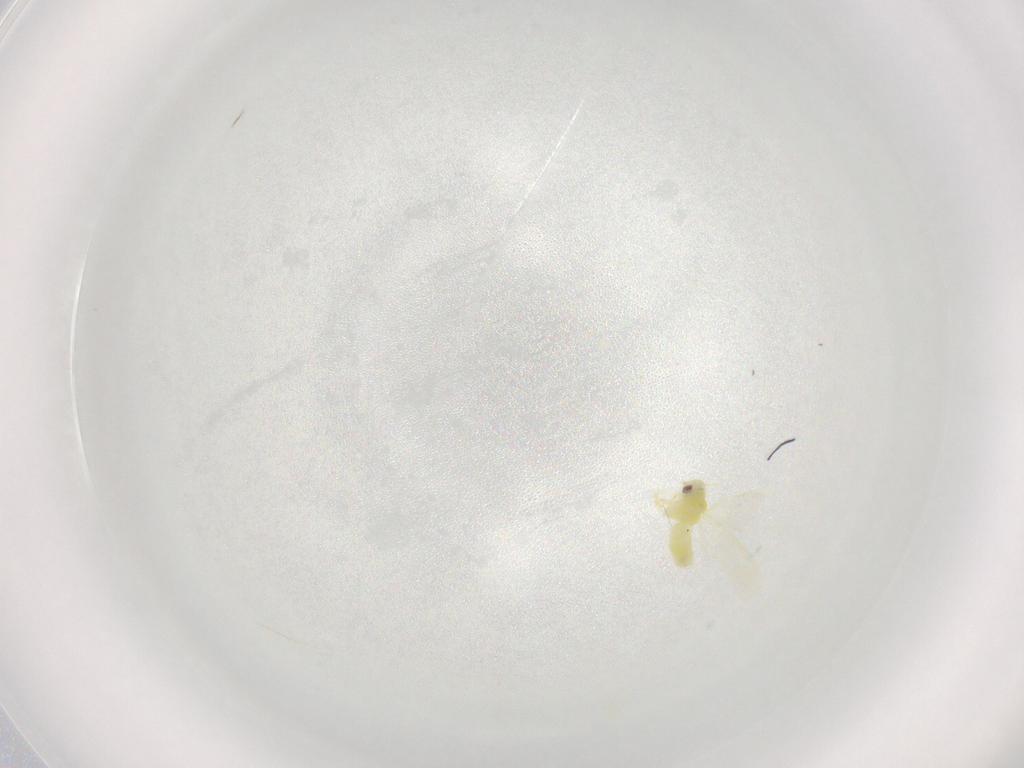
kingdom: Animalia
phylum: Arthropoda
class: Insecta
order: Hemiptera
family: Aleyrodidae
